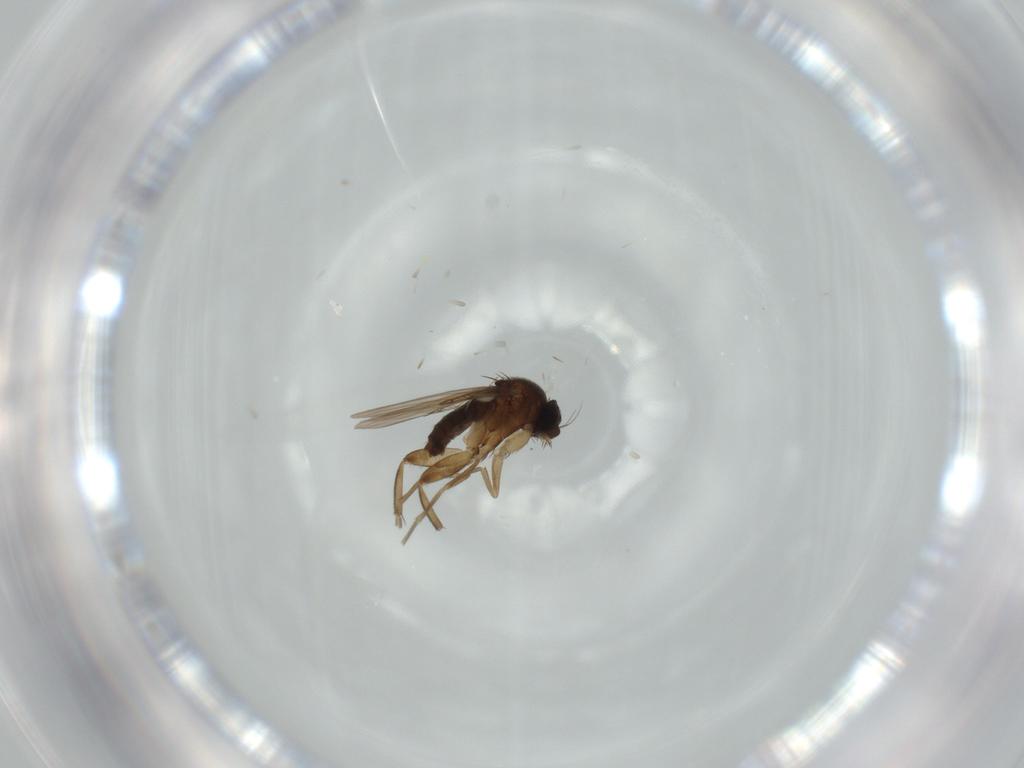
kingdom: Animalia
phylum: Arthropoda
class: Insecta
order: Diptera
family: Phoridae
